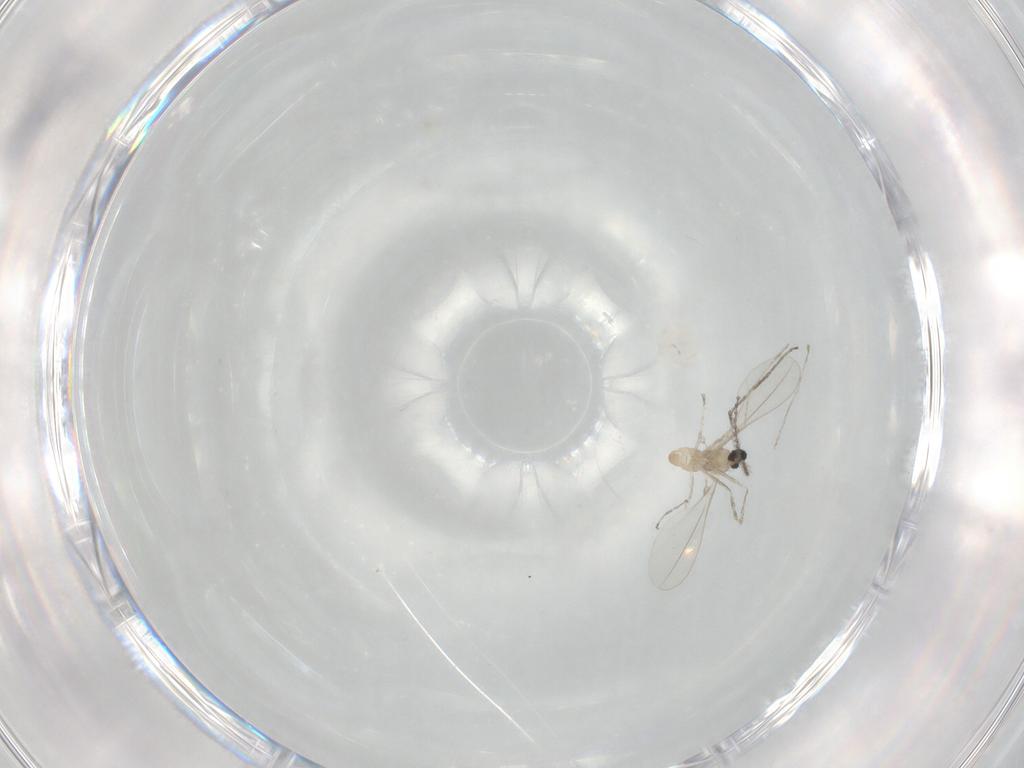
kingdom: Animalia
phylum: Arthropoda
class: Insecta
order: Diptera
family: Cecidomyiidae
